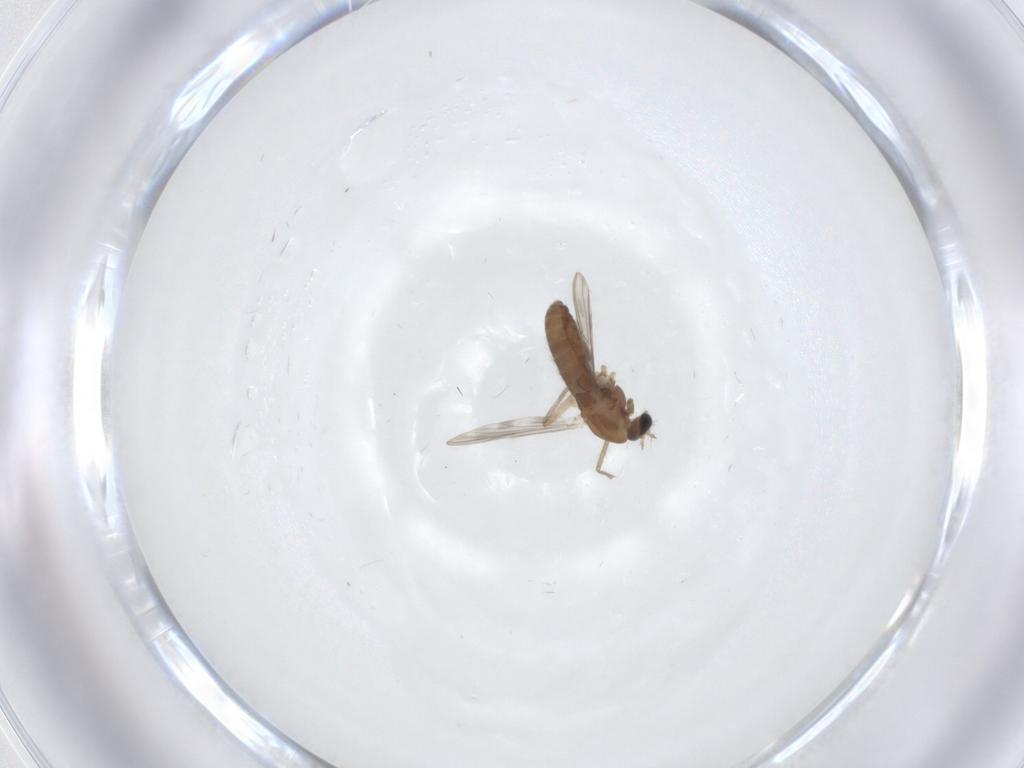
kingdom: Animalia
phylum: Arthropoda
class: Insecta
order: Diptera
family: Chironomidae
